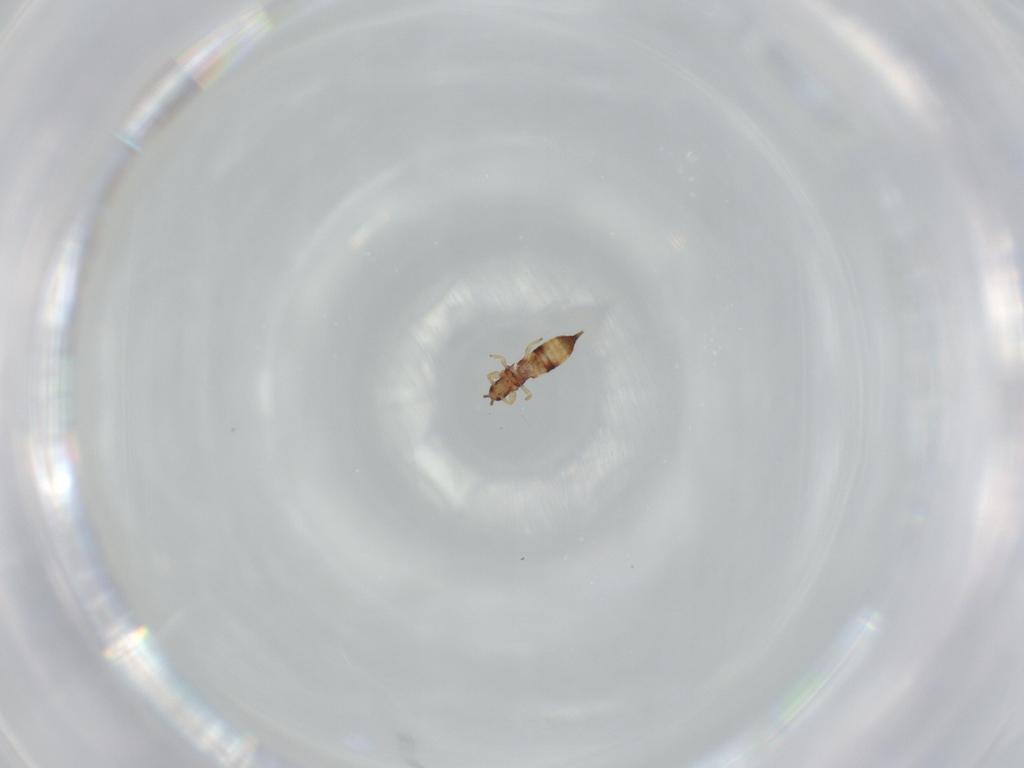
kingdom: Animalia
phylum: Arthropoda
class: Insecta
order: Thysanoptera
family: Phlaeothripidae
